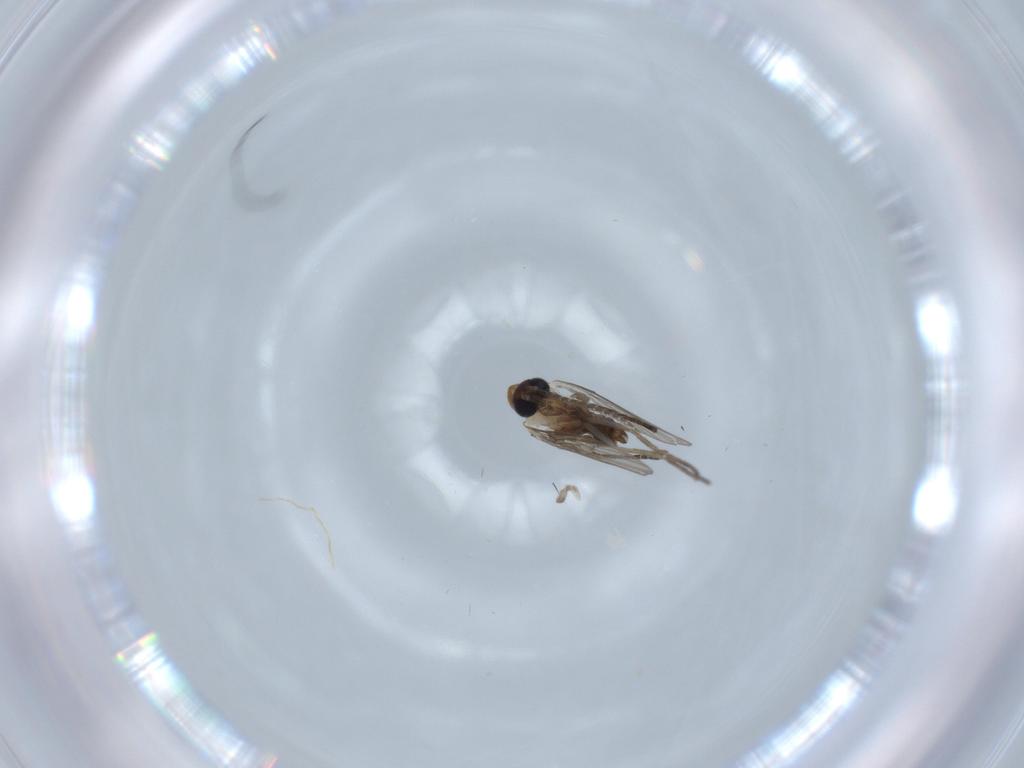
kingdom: Animalia
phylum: Arthropoda
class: Insecta
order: Diptera
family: Psychodidae
